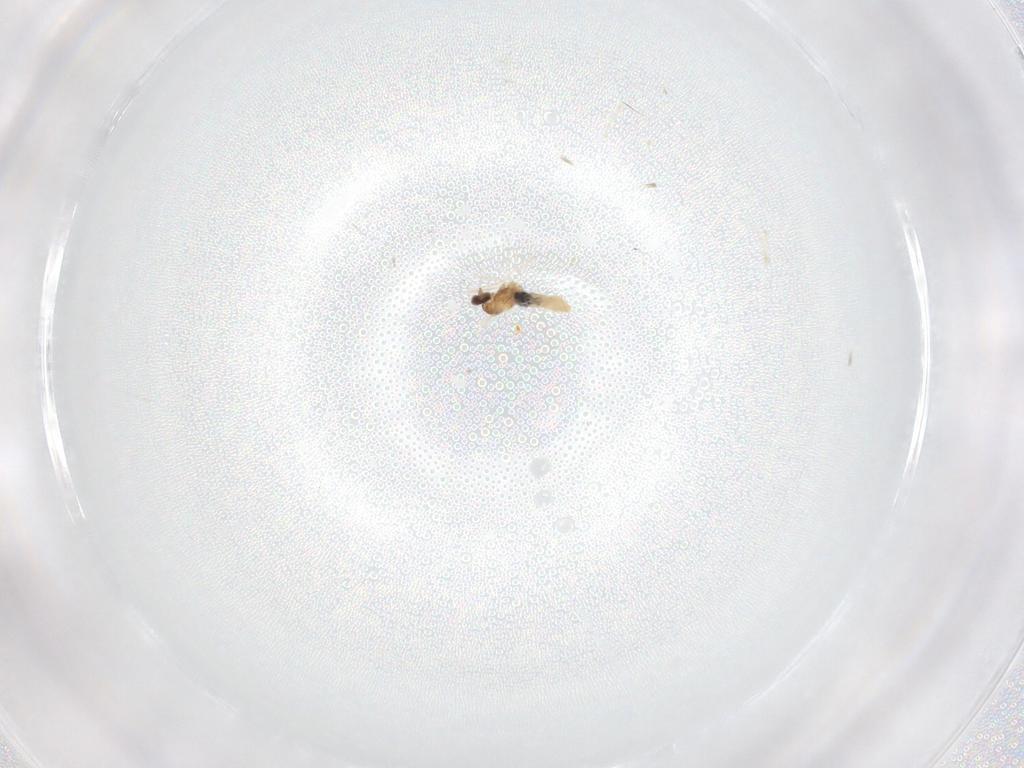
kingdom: Animalia
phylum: Arthropoda
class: Insecta
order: Diptera
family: Cecidomyiidae
